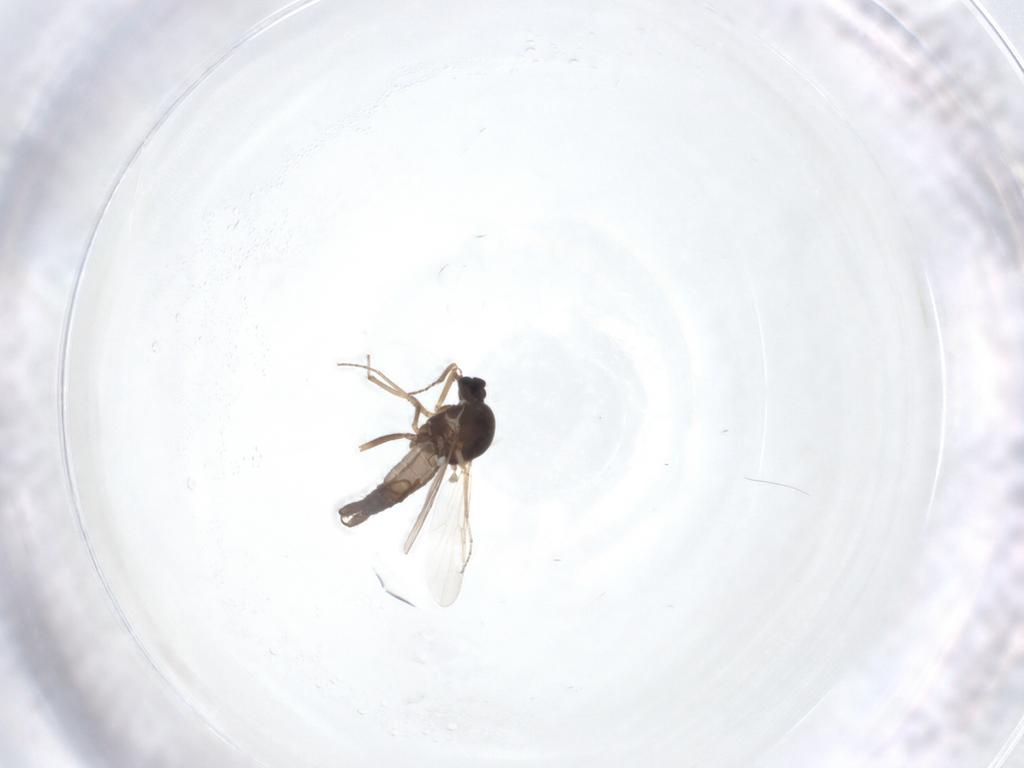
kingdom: Animalia
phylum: Arthropoda
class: Insecta
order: Diptera
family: Ceratopogonidae
